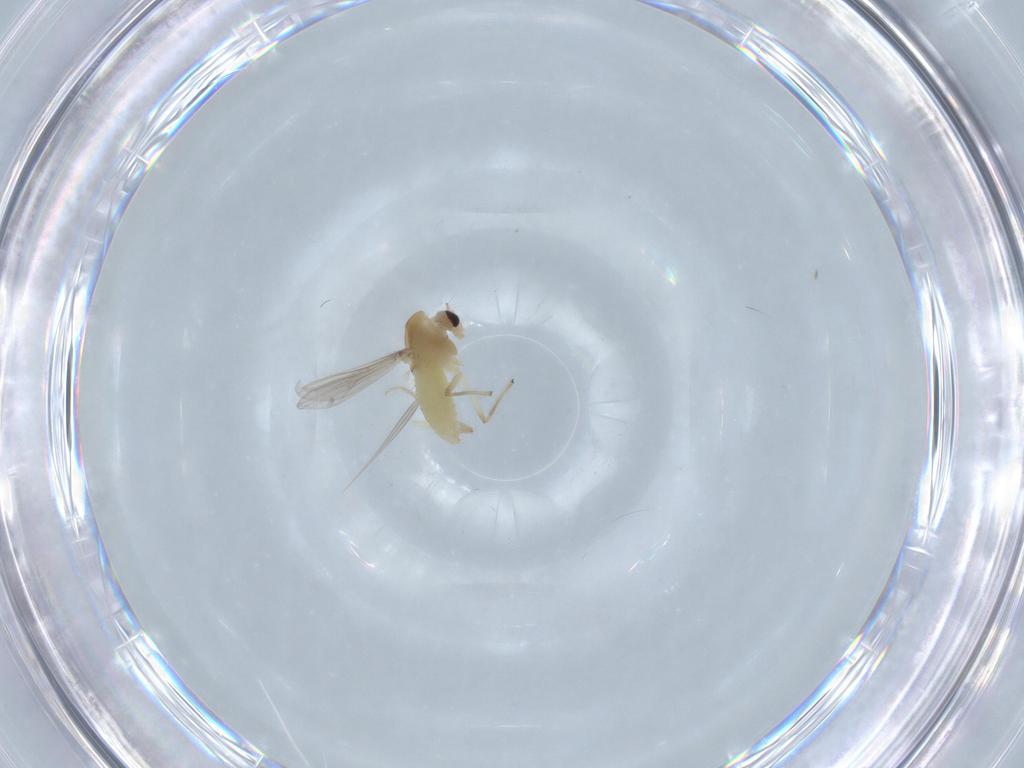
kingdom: Animalia
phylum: Arthropoda
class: Insecta
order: Diptera
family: Chironomidae
